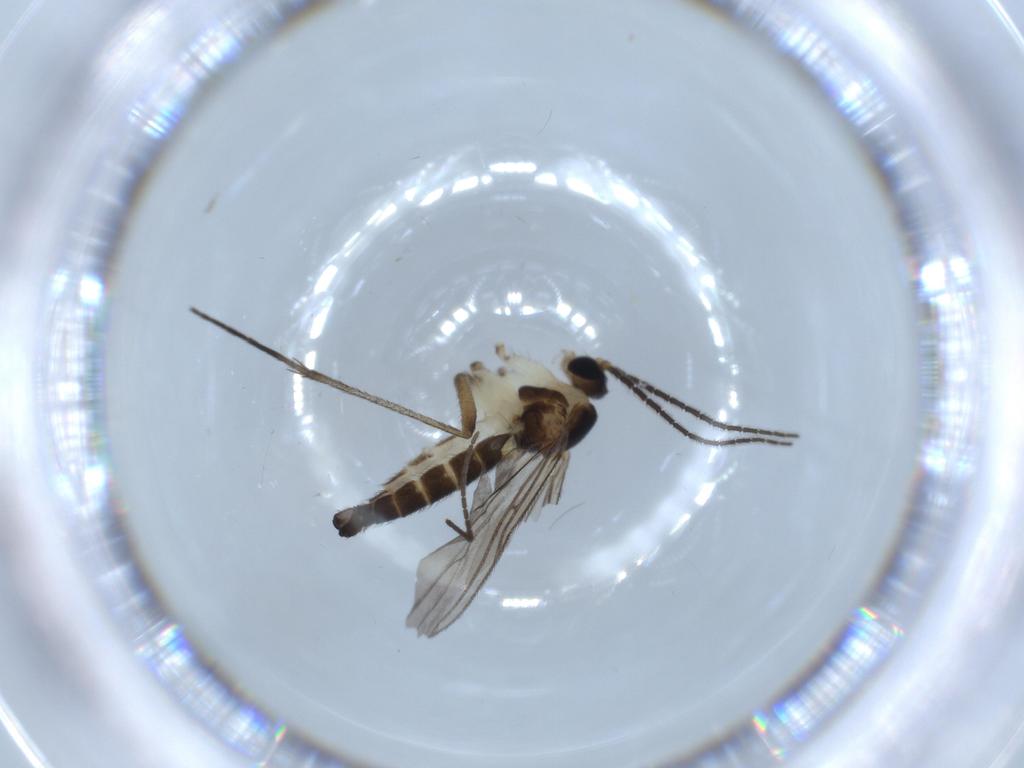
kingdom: Animalia
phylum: Arthropoda
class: Insecta
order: Diptera
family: Sciaridae
